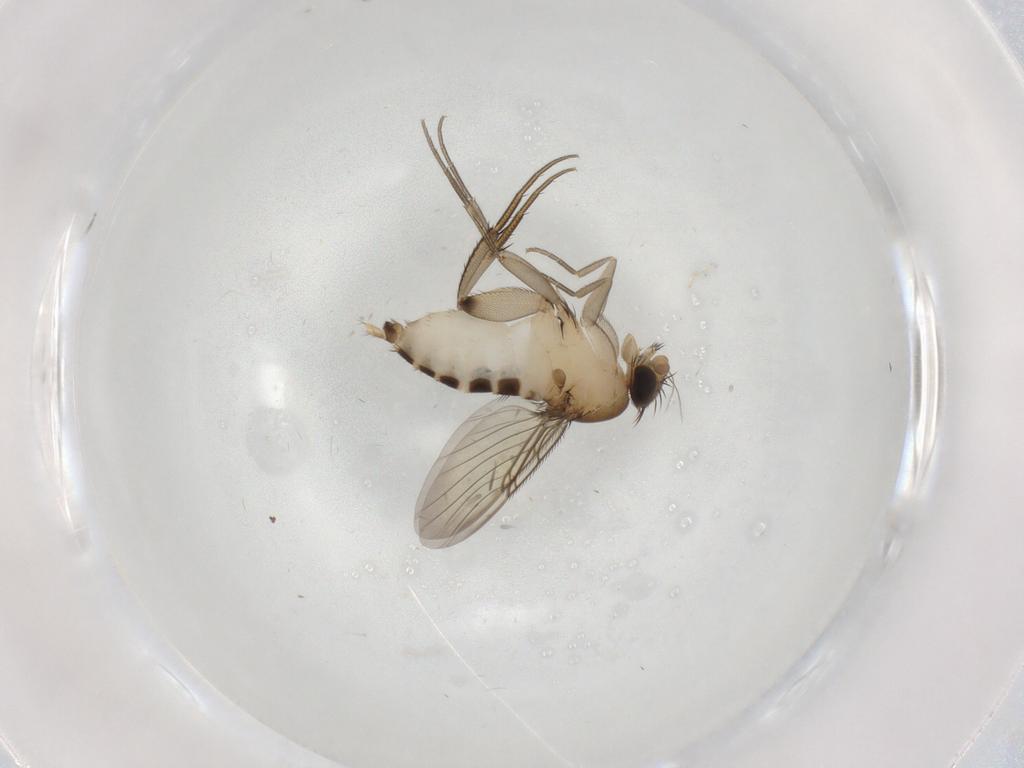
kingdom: Animalia
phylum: Arthropoda
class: Insecta
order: Diptera
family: Phoridae
